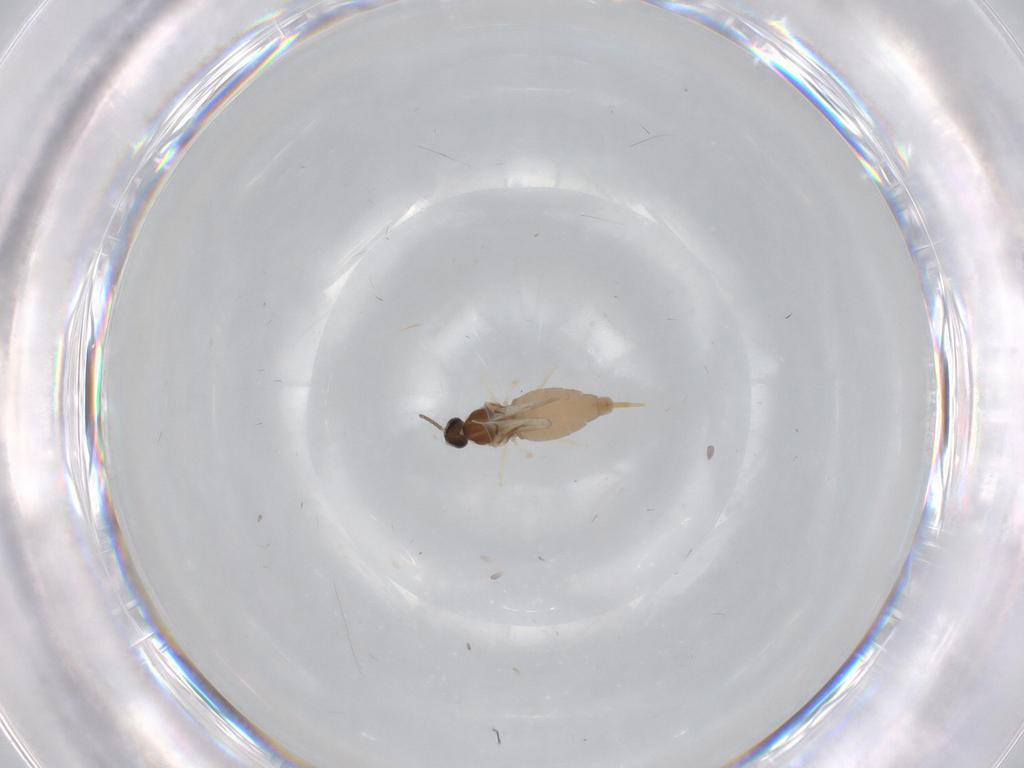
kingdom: Animalia
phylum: Arthropoda
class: Insecta
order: Diptera
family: Cecidomyiidae
